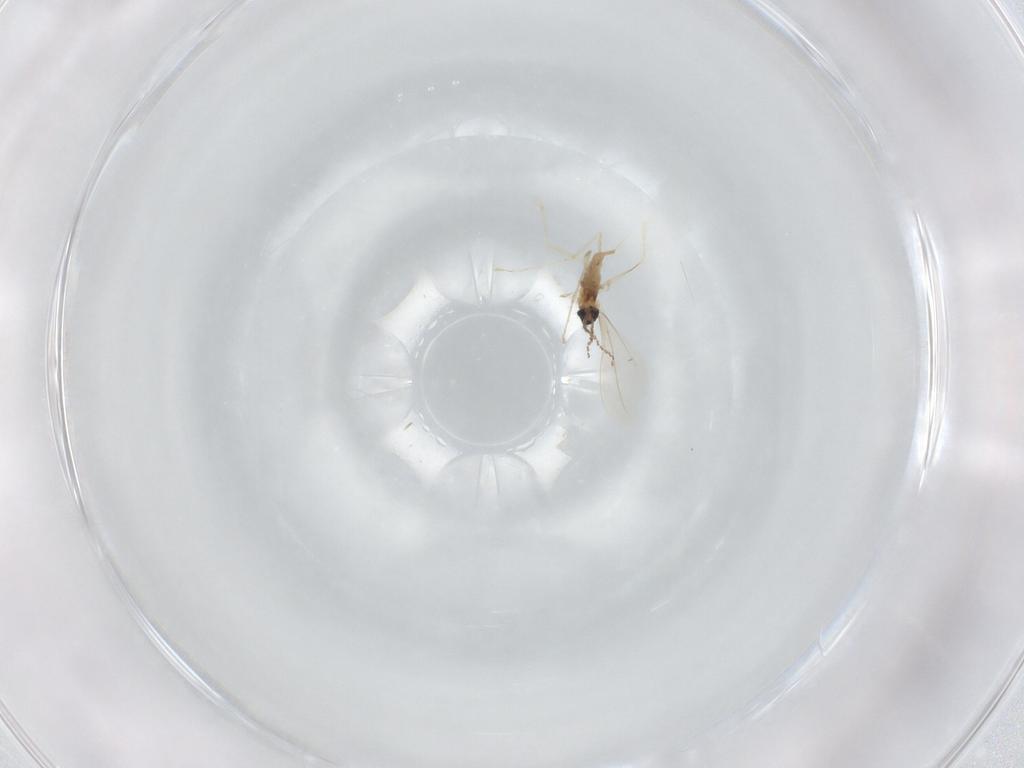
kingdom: Animalia
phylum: Arthropoda
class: Insecta
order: Diptera
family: Cecidomyiidae
